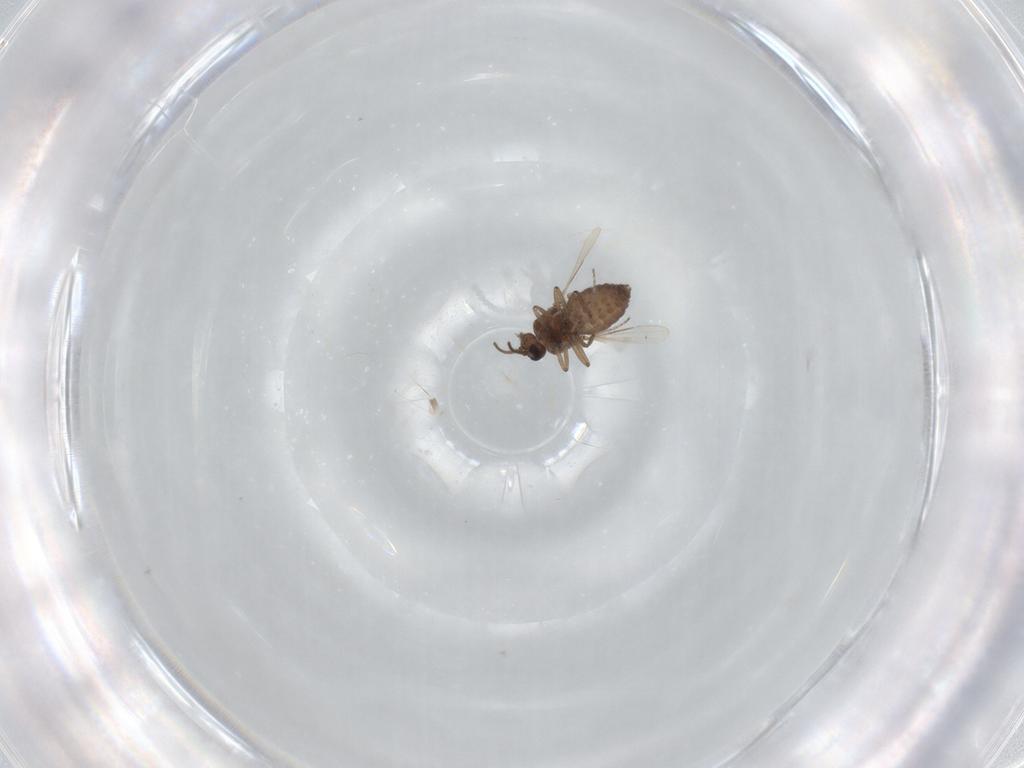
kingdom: Animalia
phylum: Arthropoda
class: Insecta
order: Diptera
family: Ceratopogonidae
